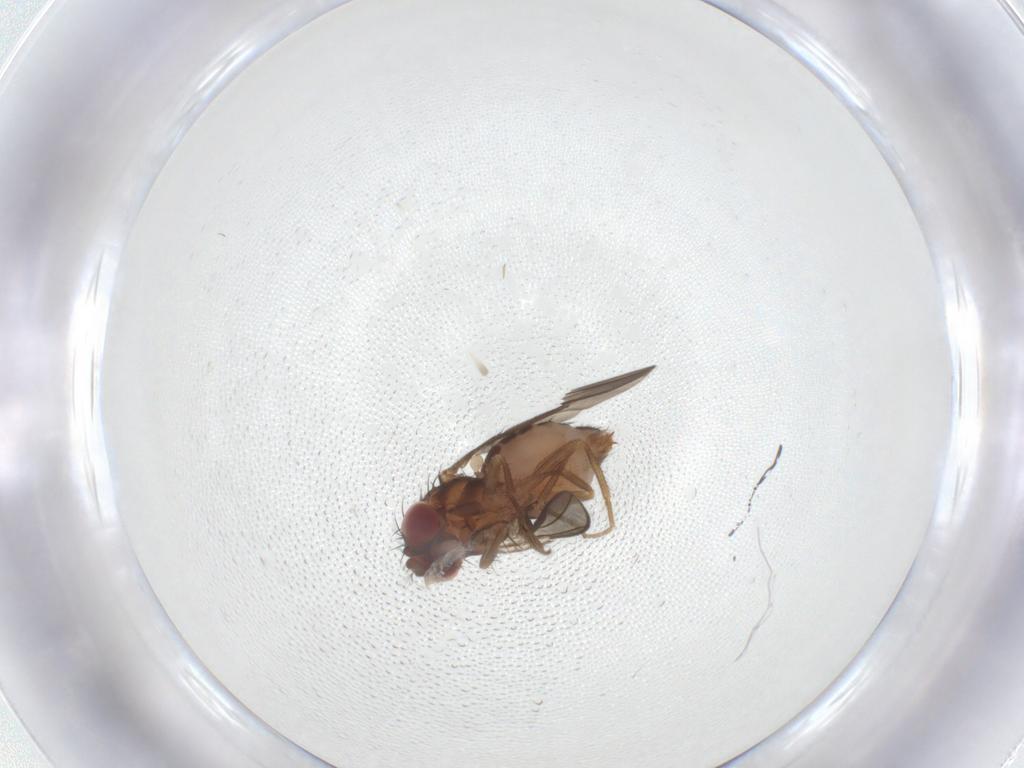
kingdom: Animalia
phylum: Arthropoda
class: Insecta
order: Diptera
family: Drosophilidae
